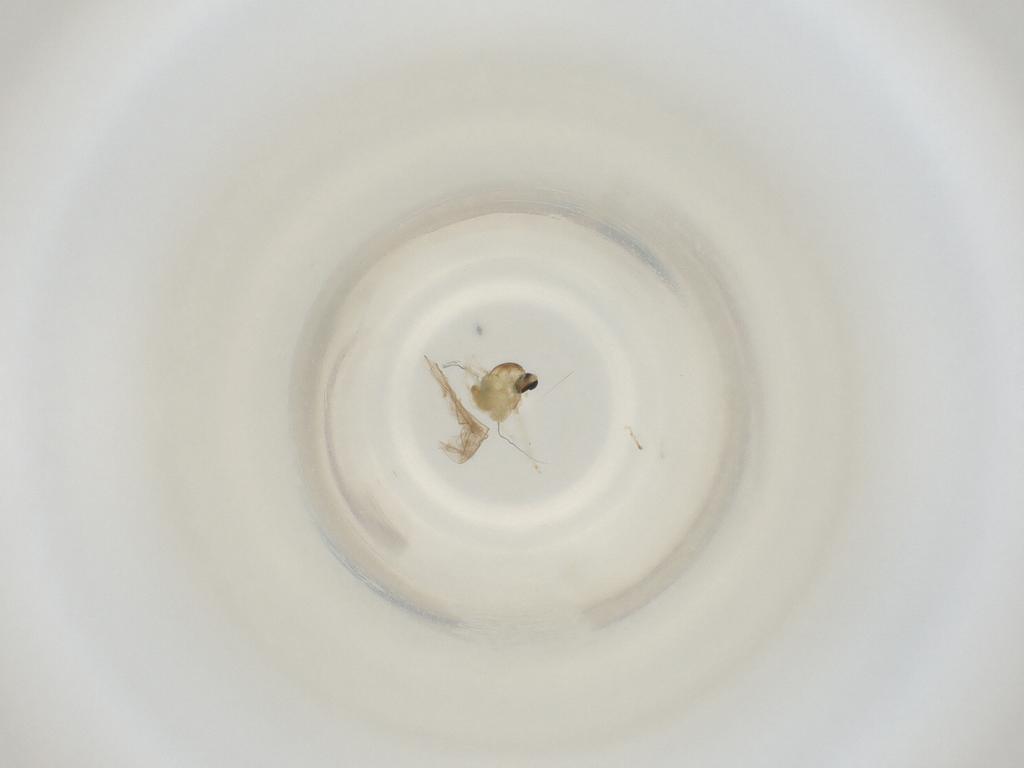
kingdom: Animalia
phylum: Arthropoda
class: Insecta
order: Diptera
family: Cecidomyiidae
